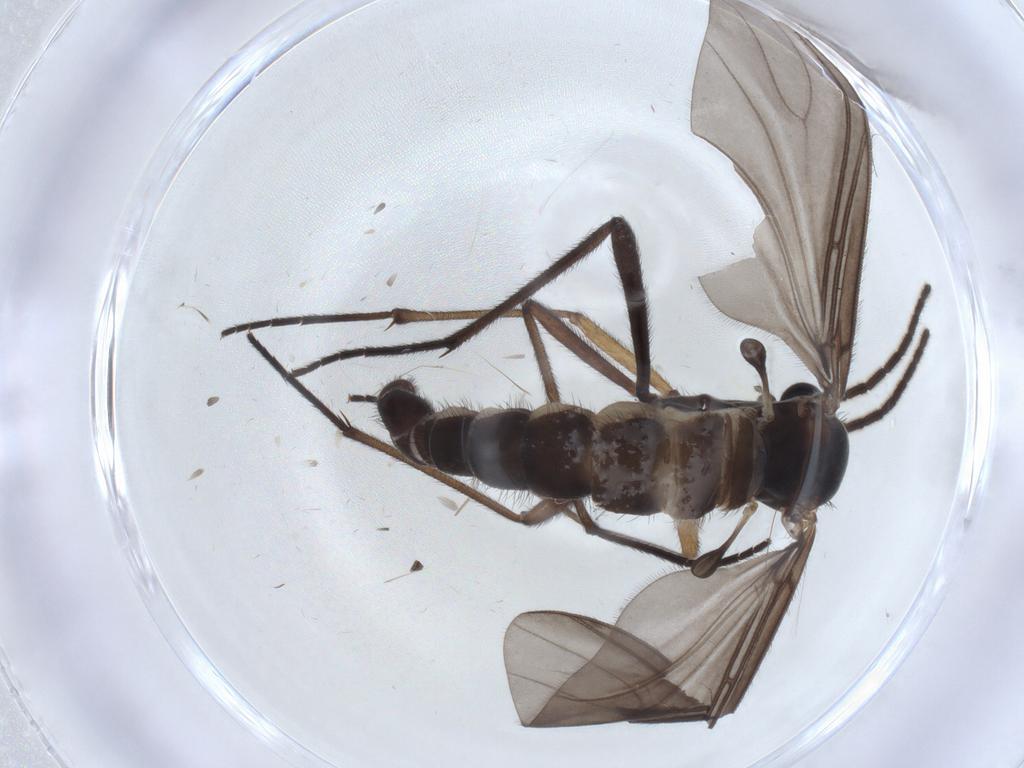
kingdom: Animalia
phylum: Arthropoda
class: Insecta
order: Diptera
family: Sciaridae
